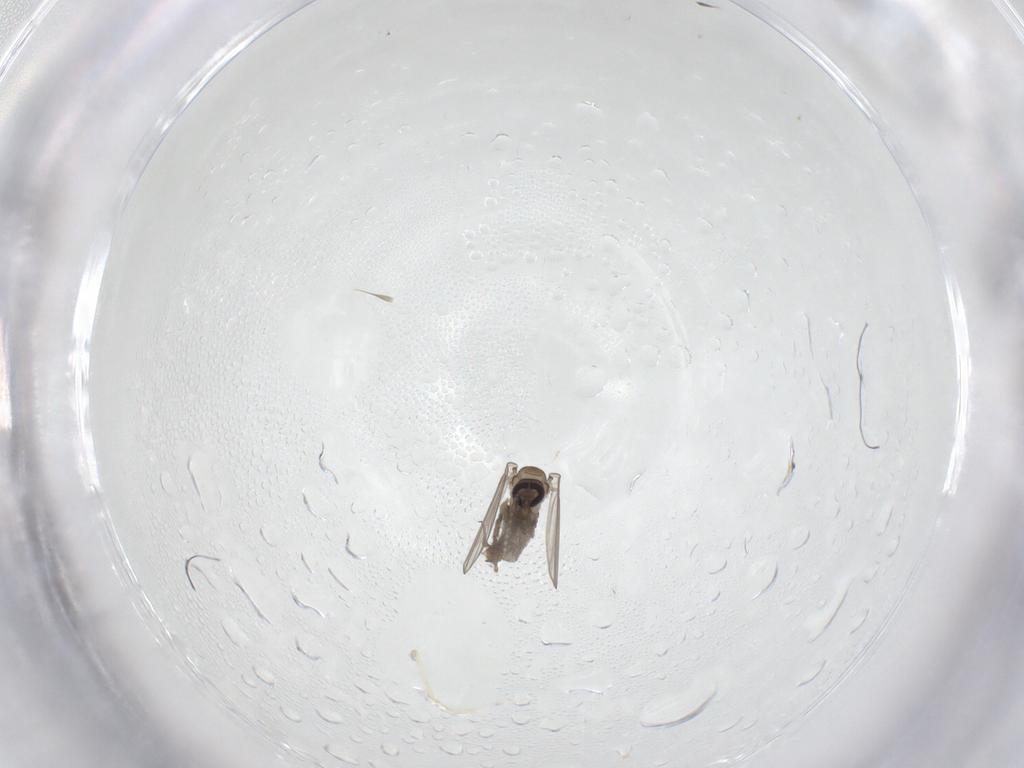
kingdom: Animalia
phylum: Arthropoda
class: Insecta
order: Diptera
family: Psychodidae
